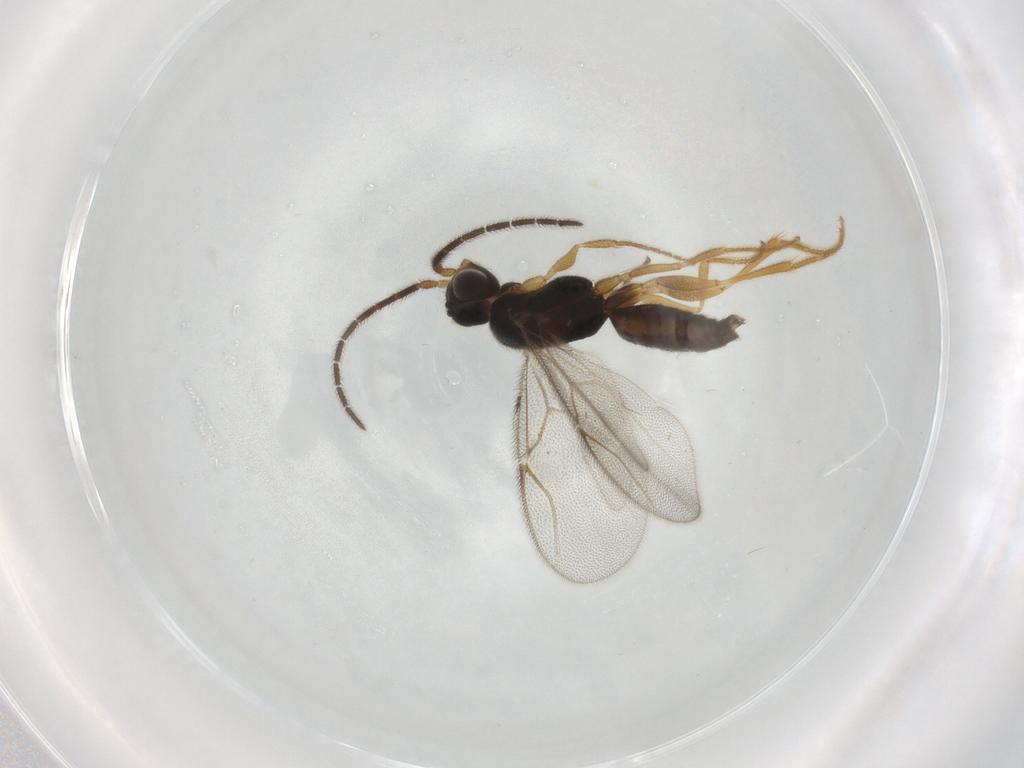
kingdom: Animalia
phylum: Arthropoda
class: Insecta
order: Hymenoptera
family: Dryinidae
